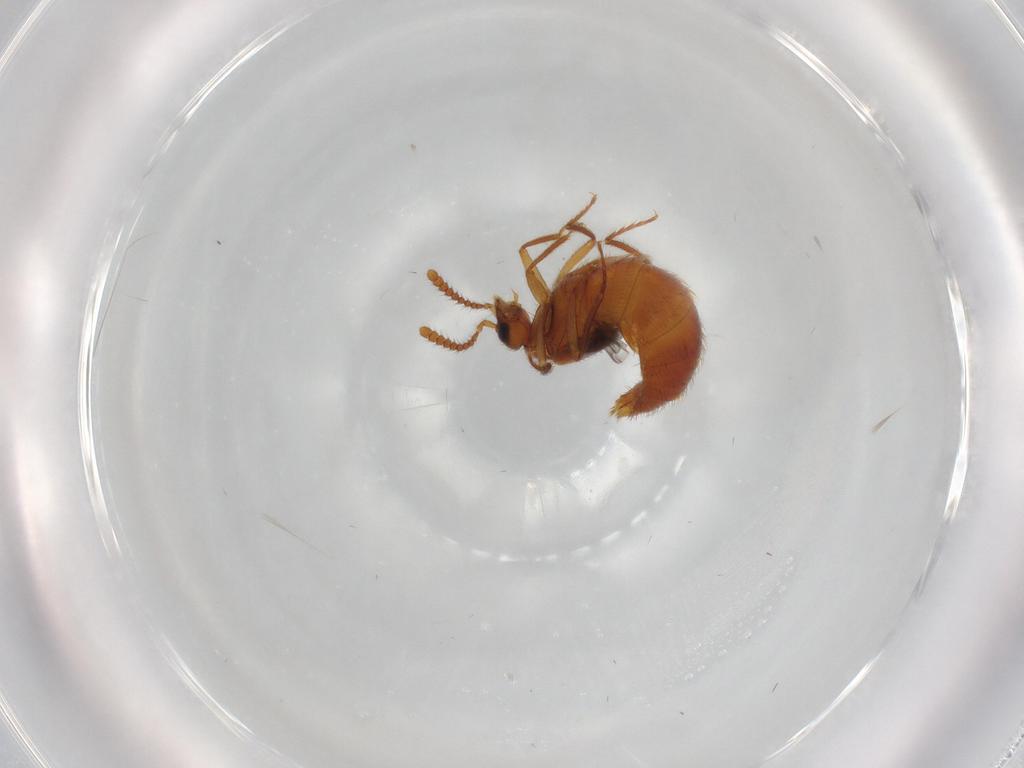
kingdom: Animalia
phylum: Arthropoda
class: Insecta
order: Coleoptera
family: Staphylinidae
